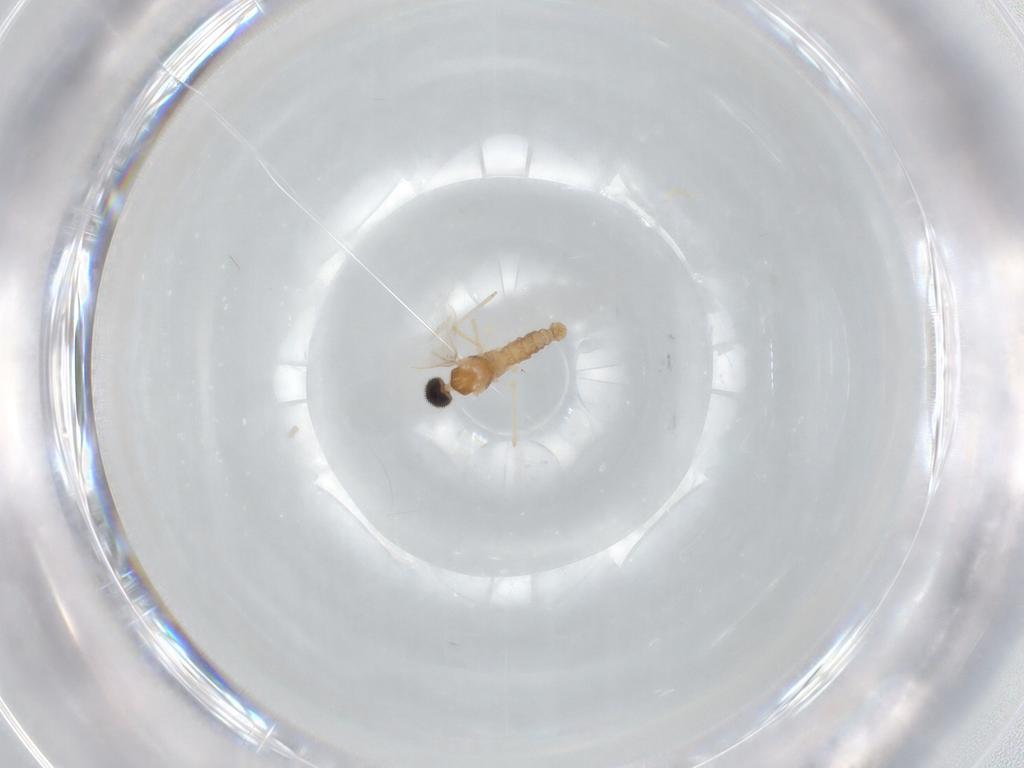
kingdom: Animalia
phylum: Arthropoda
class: Insecta
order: Diptera
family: Cecidomyiidae
